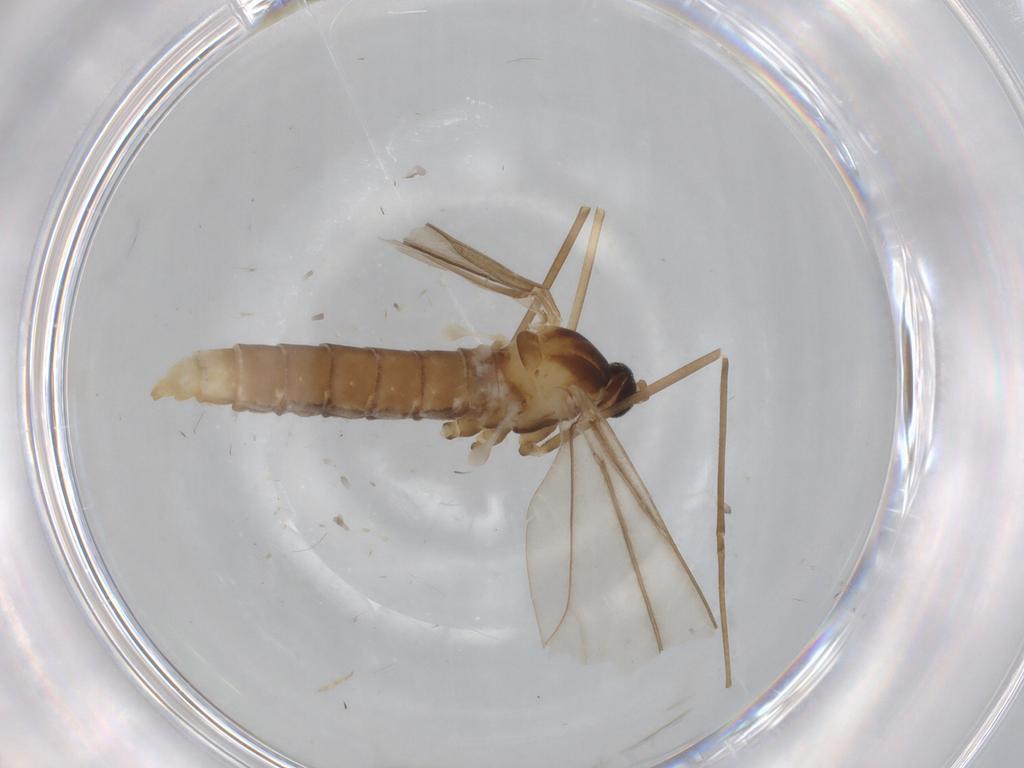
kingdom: Animalia
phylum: Arthropoda
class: Insecta
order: Diptera
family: Cecidomyiidae
